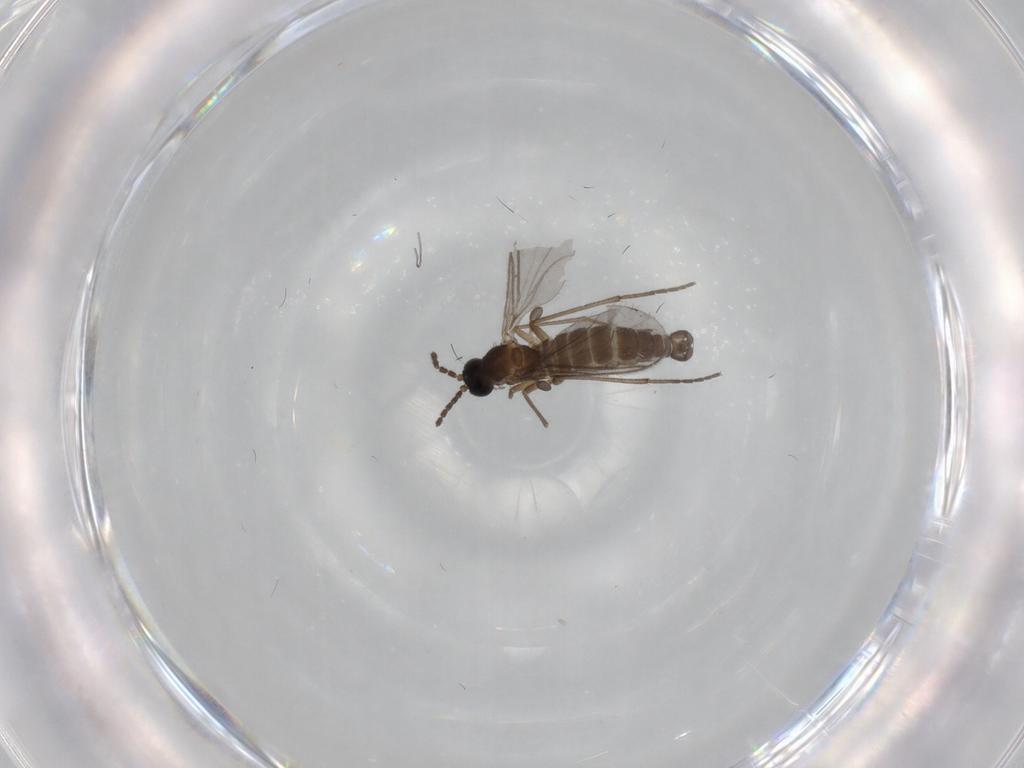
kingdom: Animalia
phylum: Arthropoda
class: Insecta
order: Diptera
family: Sciaridae
